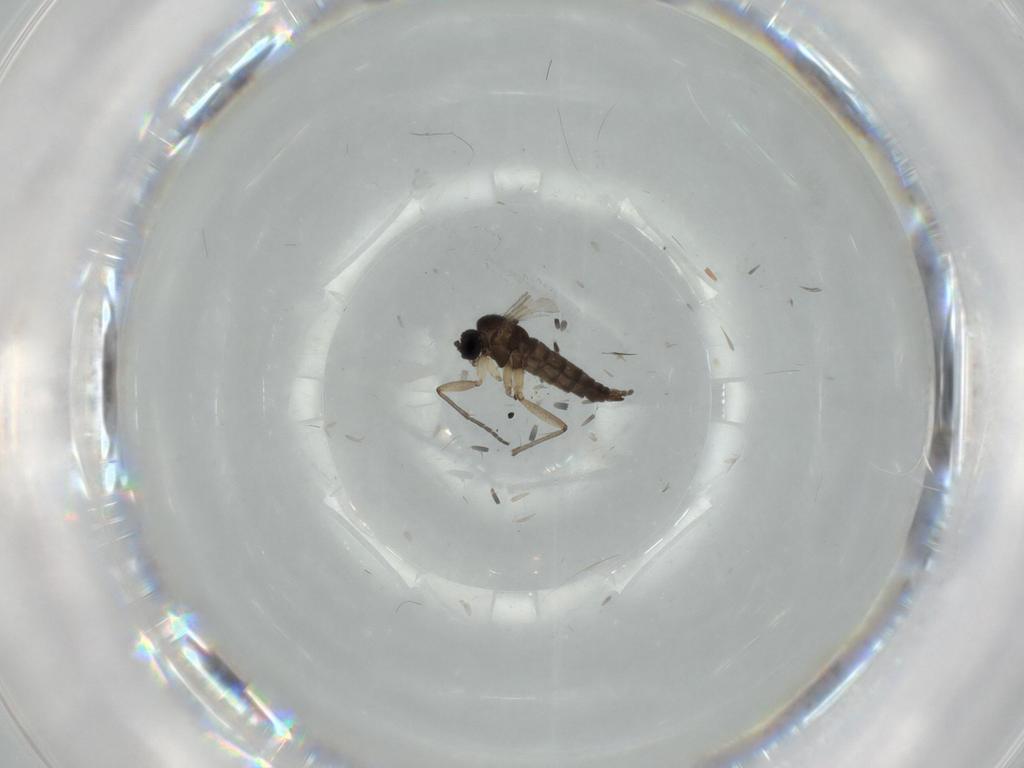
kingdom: Animalia
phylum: Arthropoda
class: Insecta
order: Diptera
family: Sciaridae
